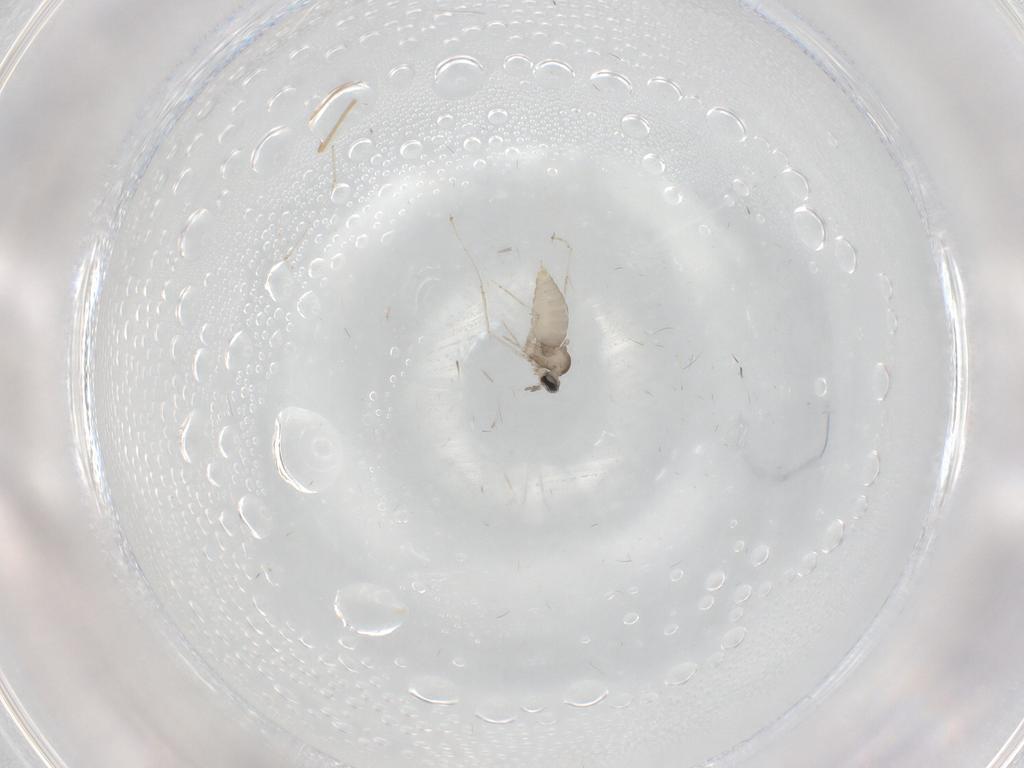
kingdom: Animalia
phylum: Arthropoda
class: Insecta
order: Diptera
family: Cecidomyiidae
